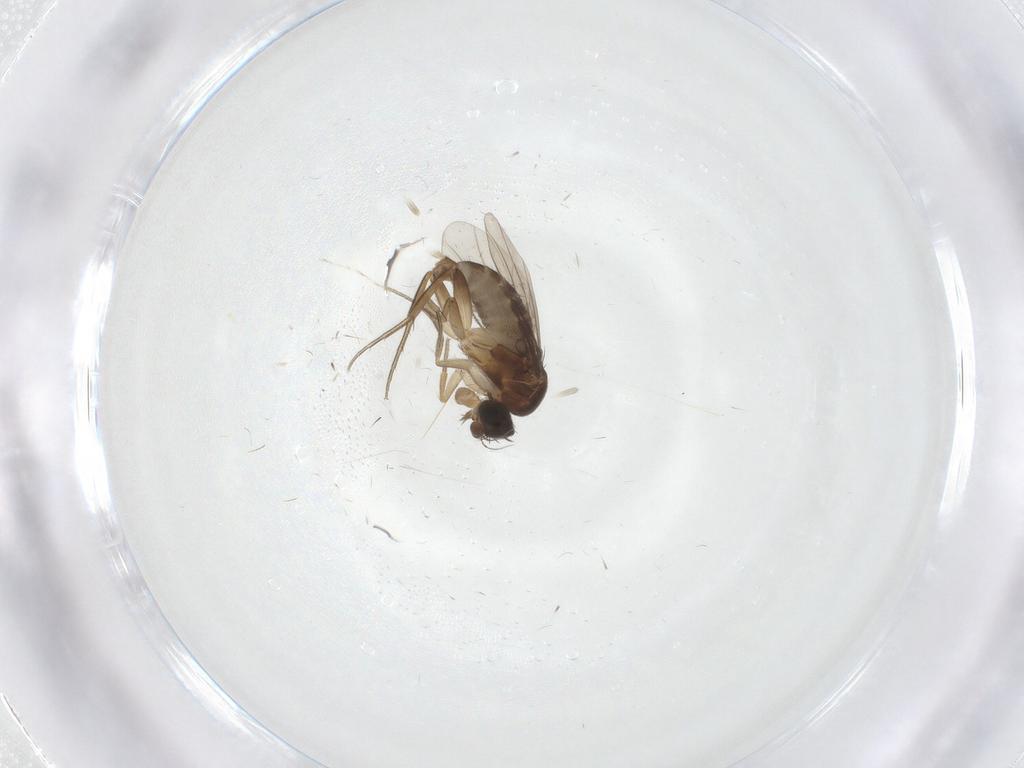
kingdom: Animalia
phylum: Arthropoda
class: Insecta
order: Diptera
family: Phoridae
